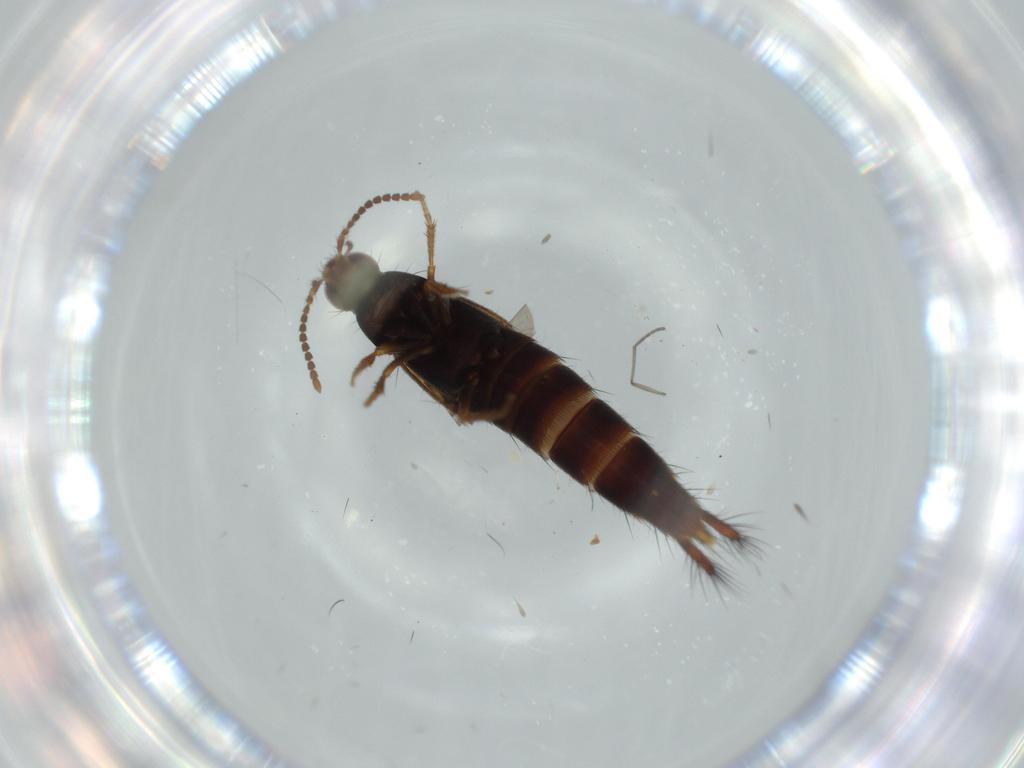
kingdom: Animalia
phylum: Arthropoda
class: Insecta
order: Coleoptera
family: Staphylinidae
